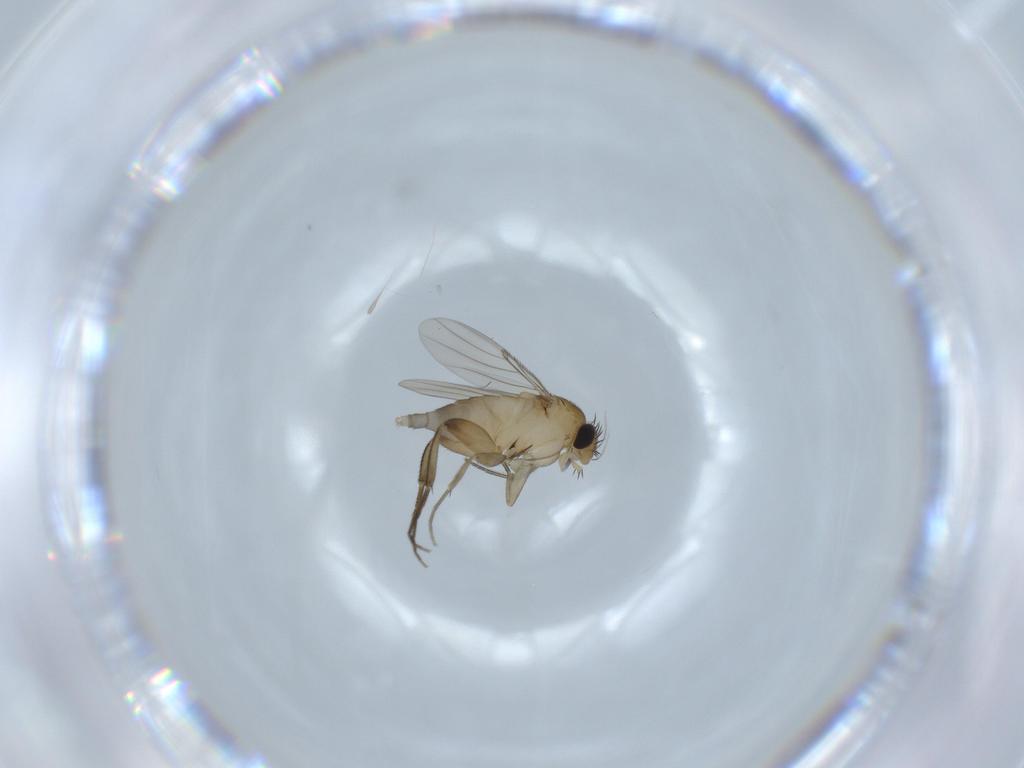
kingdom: Animalia
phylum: Arthropoda
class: Insecta
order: Diptera
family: Phoridae
